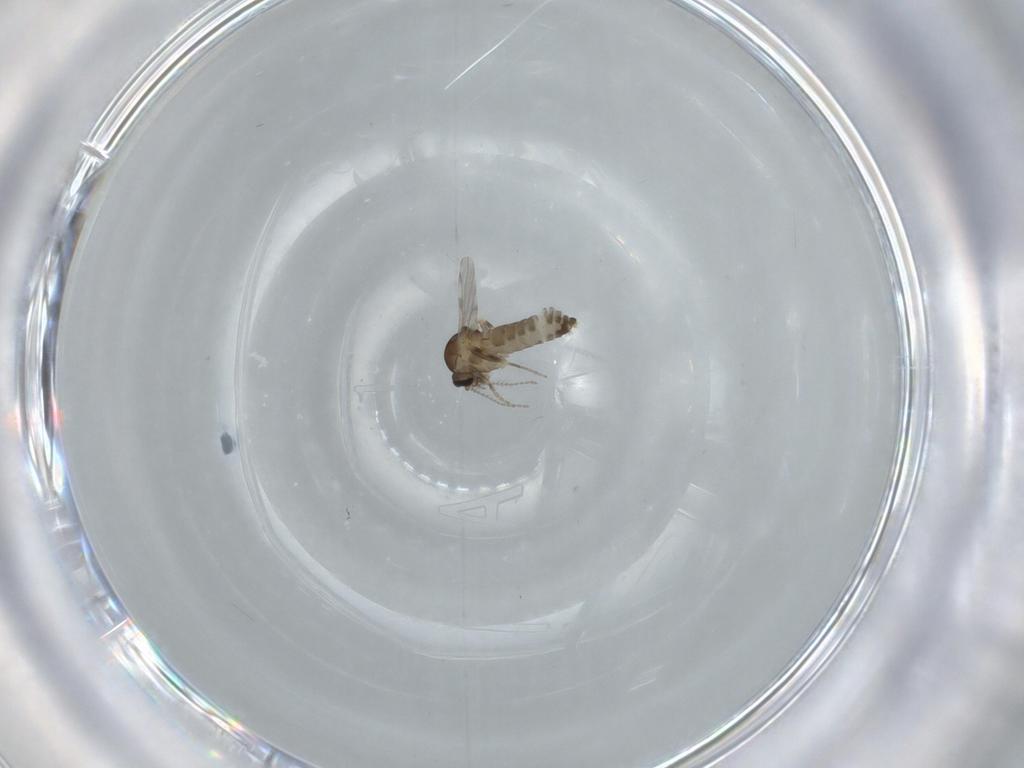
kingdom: Animalia
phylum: Arthropoda
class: Insecta
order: Diptera
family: Ceratopogonidae
